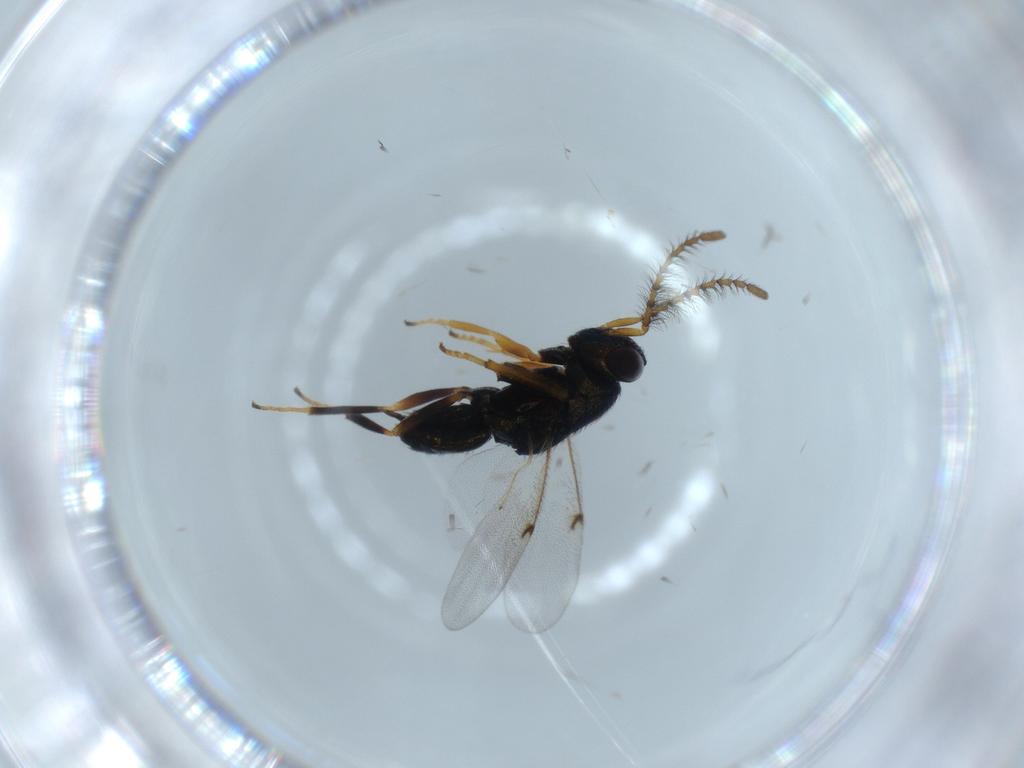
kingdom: Animalia
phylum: Arthropoda
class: Insecta
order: Hymenoptera
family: Encyrtidae
